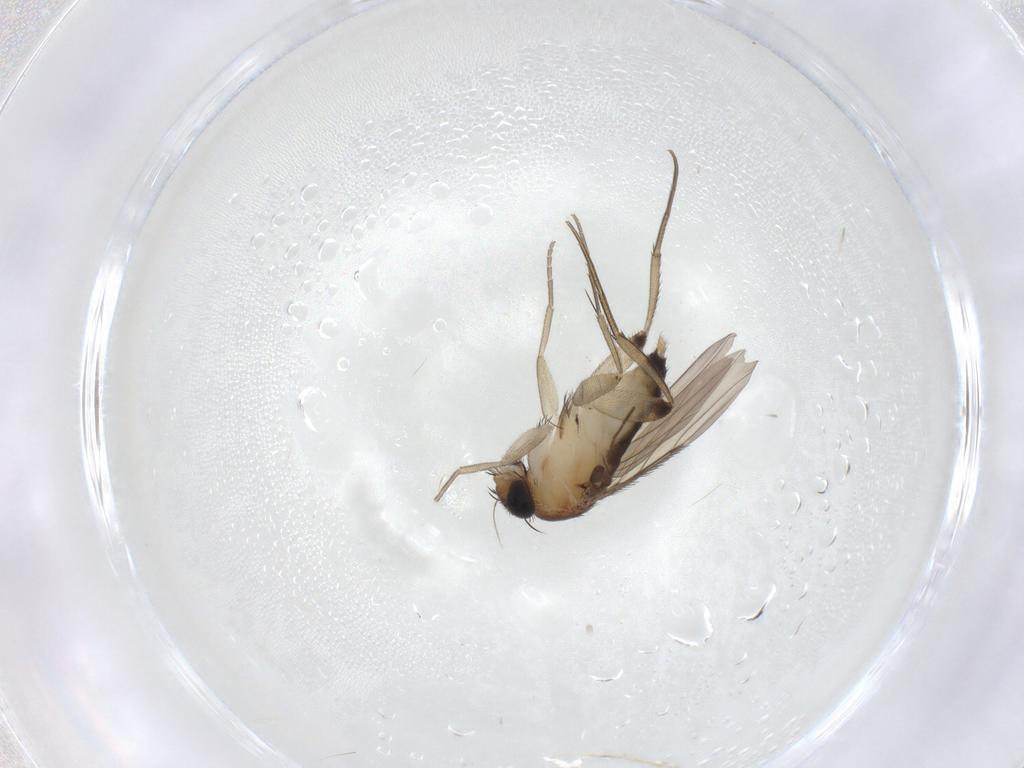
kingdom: Animalia
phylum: Arthropoda
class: Insecta
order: Diptera
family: Phoridae
